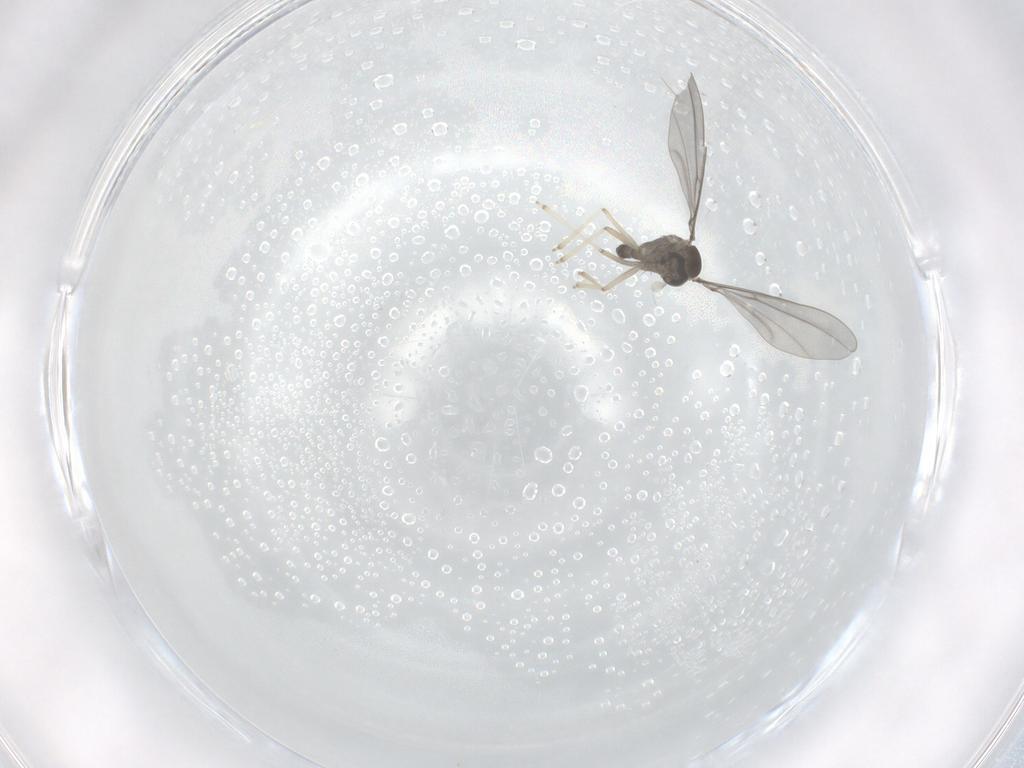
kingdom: Animalia
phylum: Arthropoda
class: Insecta
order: Diptera
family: Cecidomyiidae
